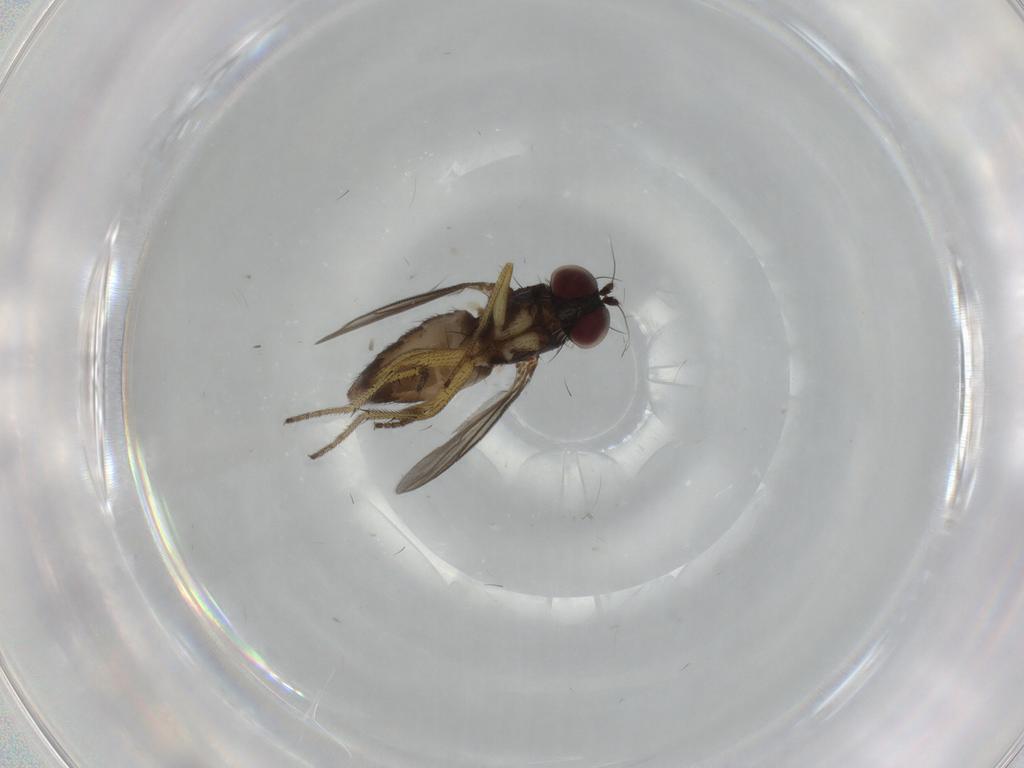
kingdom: Animalia
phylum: Arthropoda
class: Insecta
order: Diptera
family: Dolichopodidae
